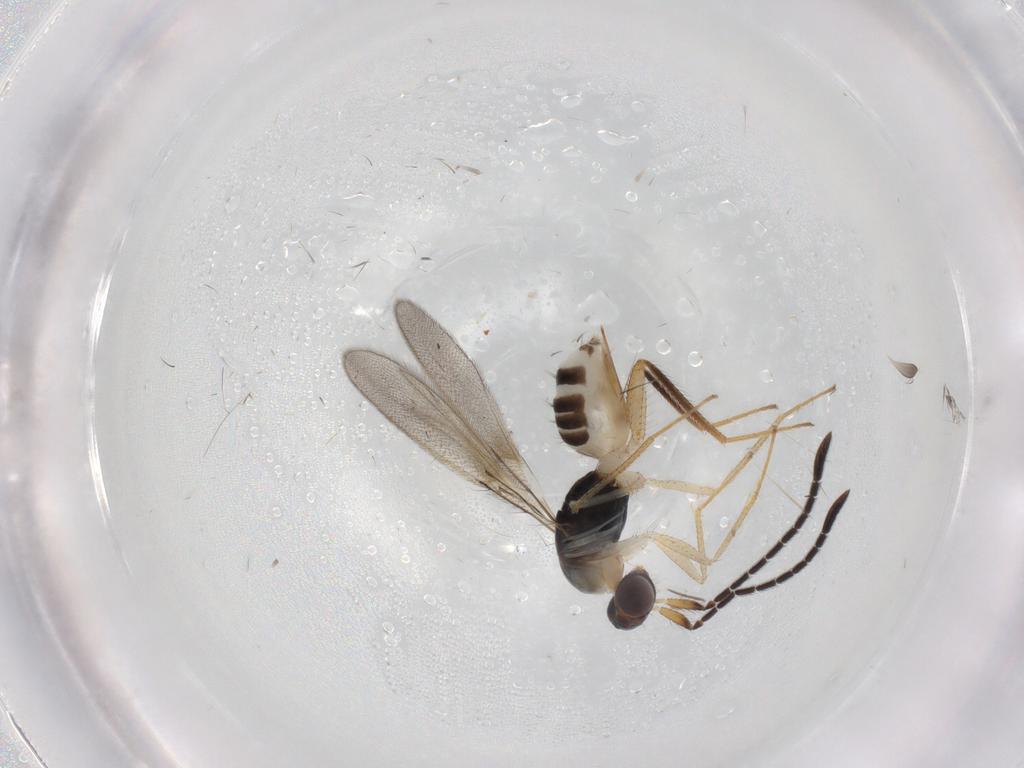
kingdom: Animalia
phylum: Arthropoda
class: Insecta
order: Diptera
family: Chironomidae
